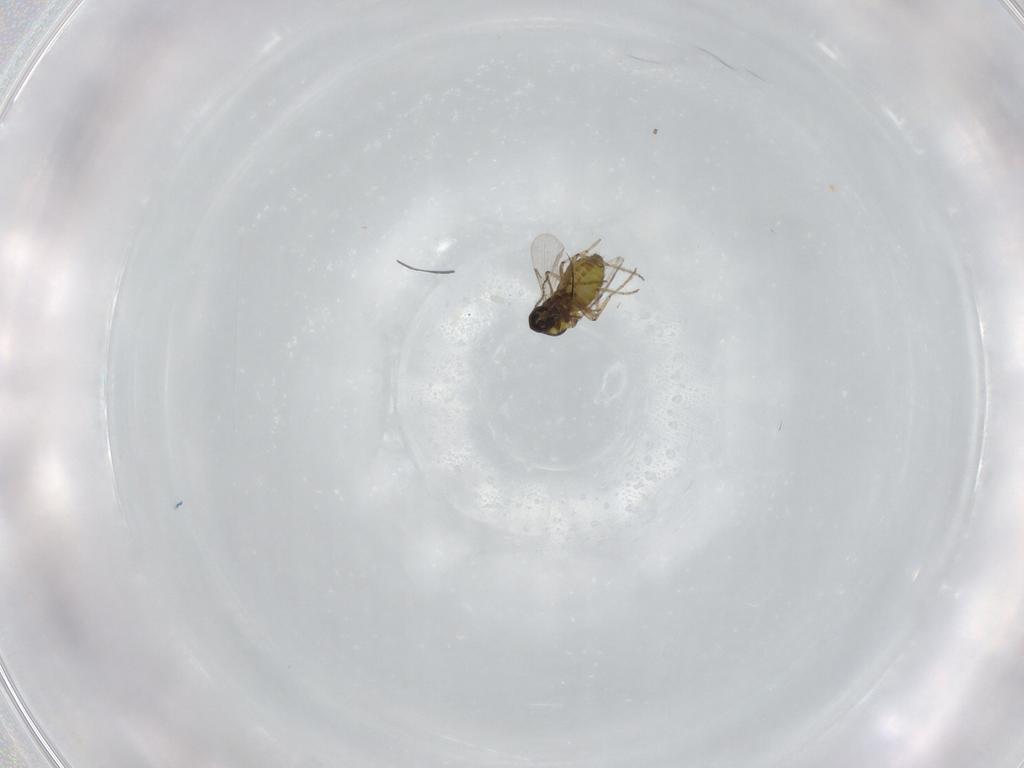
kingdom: Animalia
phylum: Arthropoda
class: Insecta
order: Diptera
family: Ceratopogonidae
